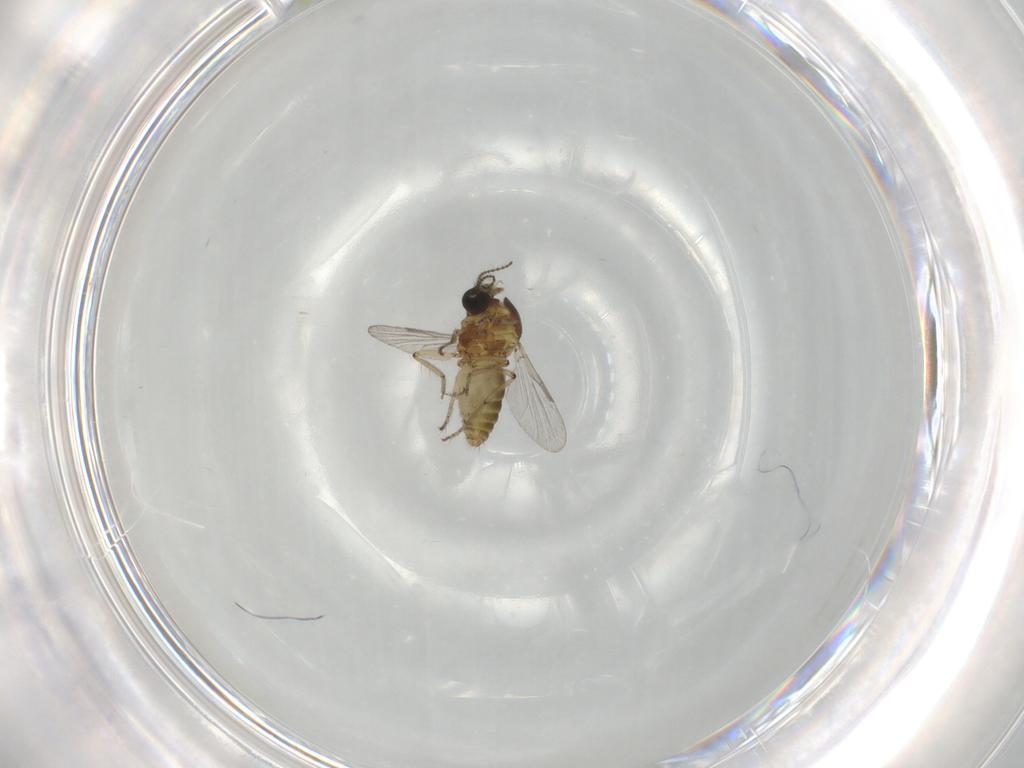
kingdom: Animalia
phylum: Arthropoda
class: Insecta
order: Diptera
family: Ceratopogonidae
